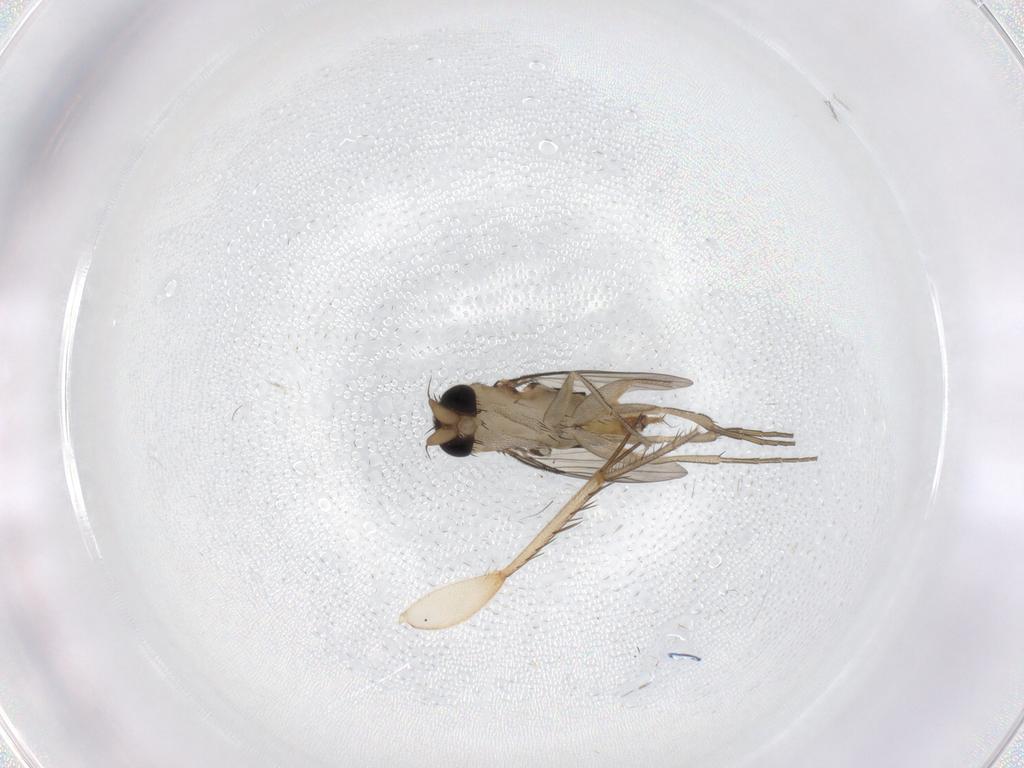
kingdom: Animalia
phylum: Arthropoda
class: Insecta
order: Diptera
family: Phoridae
